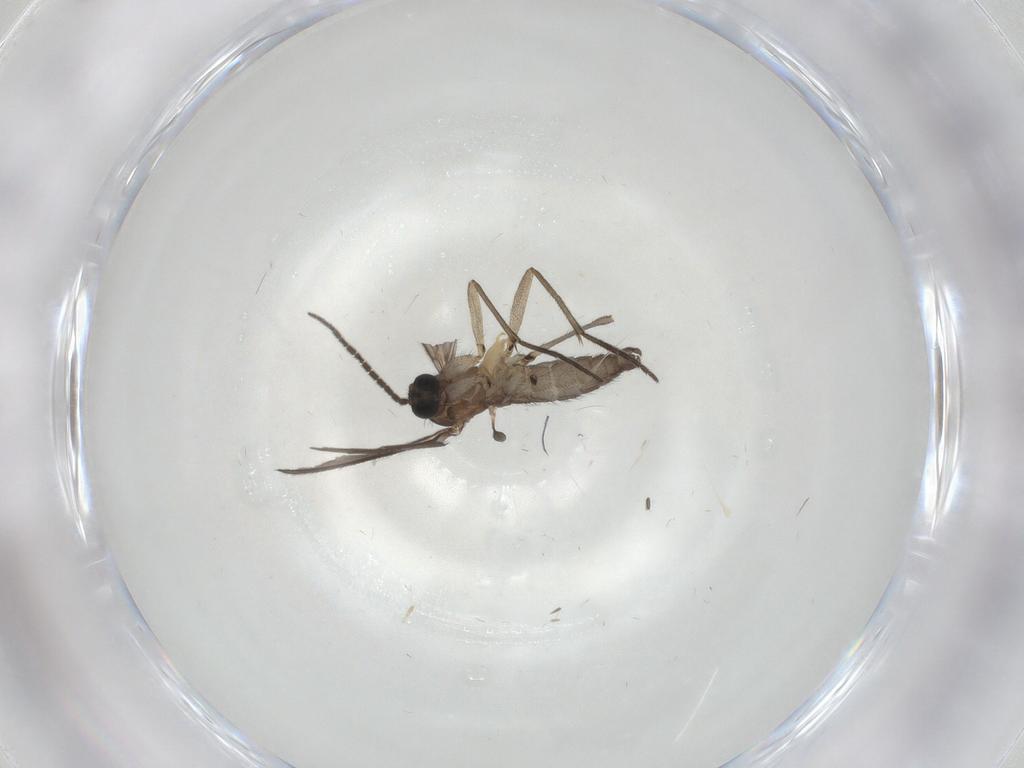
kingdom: Animalia
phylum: Arthropoda
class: Insecta
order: Diptera
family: Sciaridae
